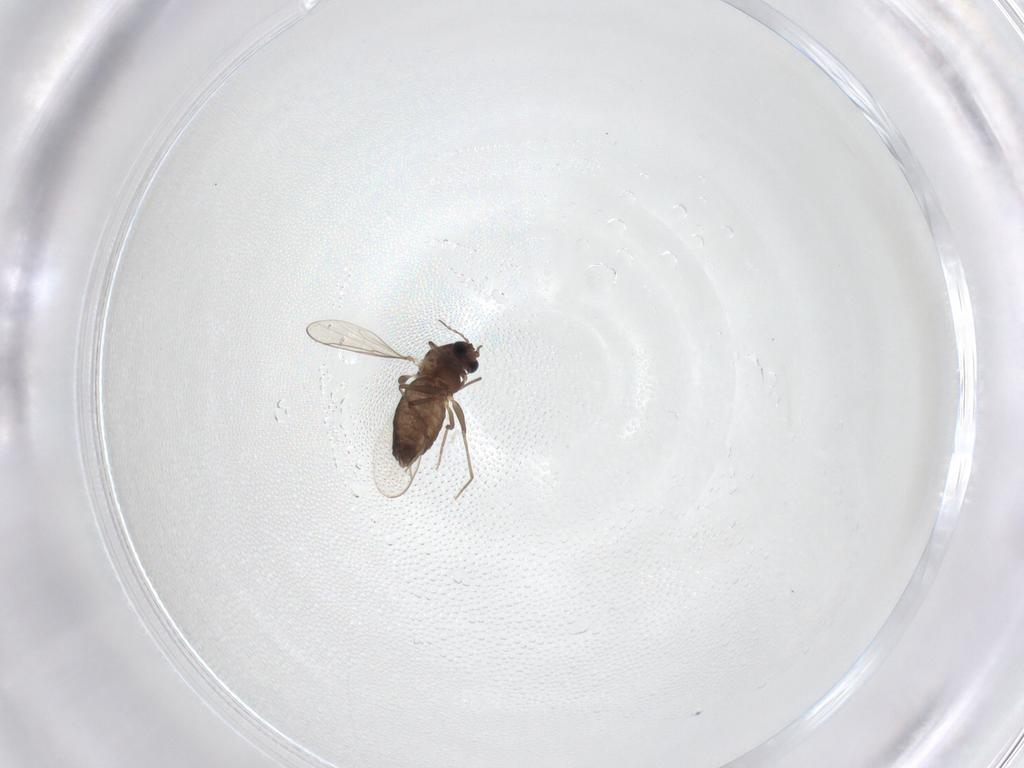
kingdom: Animalia
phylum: Arthropoda
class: Insecta
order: Diptera
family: Chironomidae
